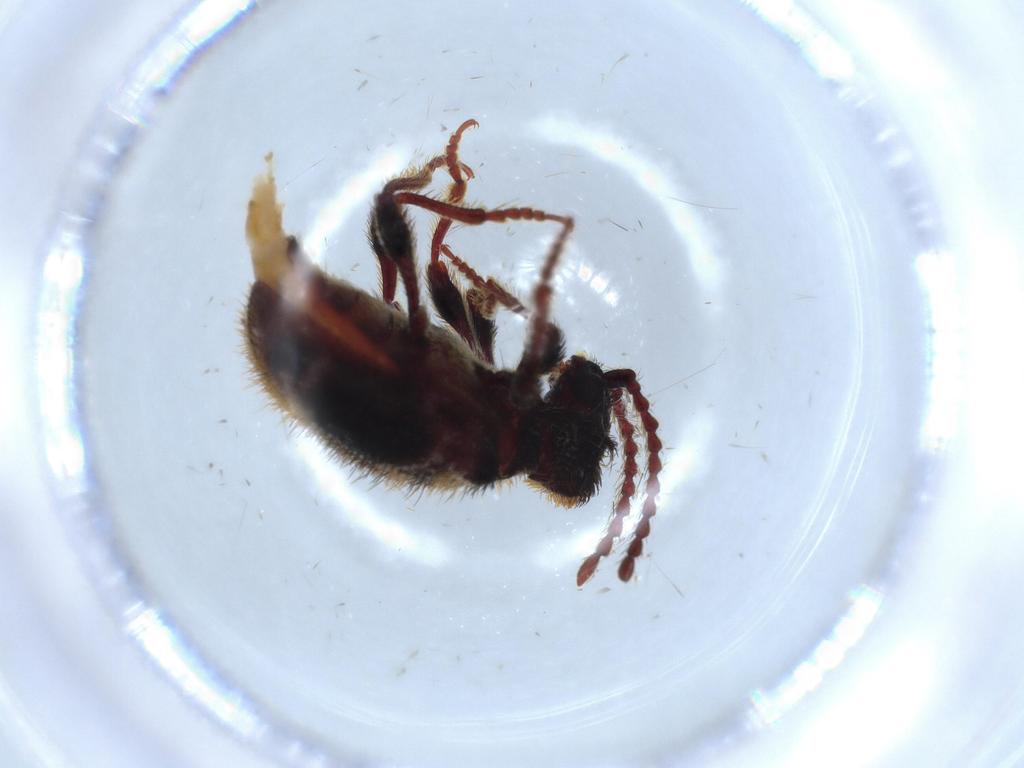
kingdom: Animalia
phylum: Arthropoda
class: Insecta
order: Coleoptera
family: Ptinidae
